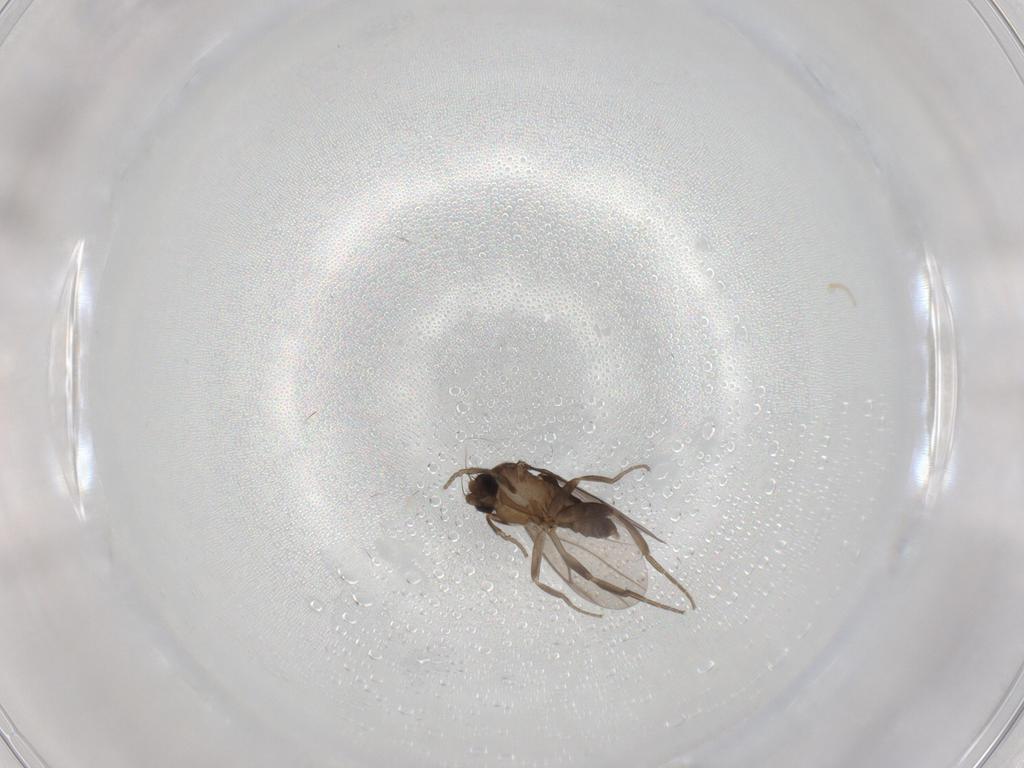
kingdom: Animalia
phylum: Arthropoda
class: Insecta
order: Diptera
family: Cecidomyiidae
